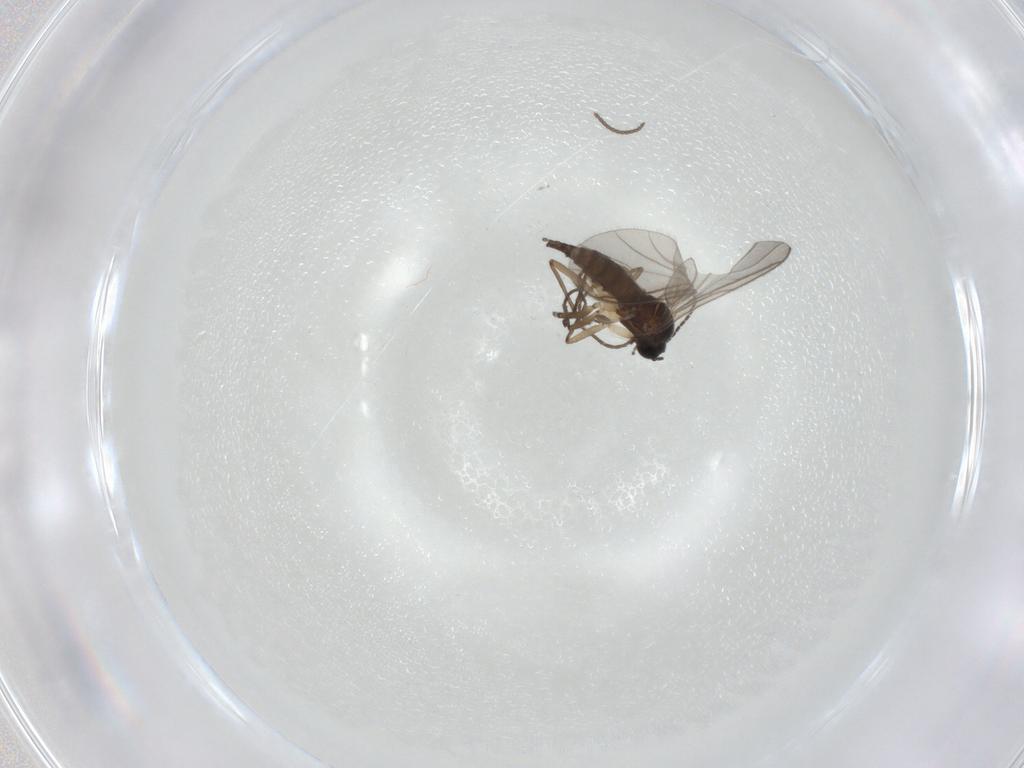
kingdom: Animalia
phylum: Arthropoda
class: Insecta
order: Diptera
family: Sciaridae
